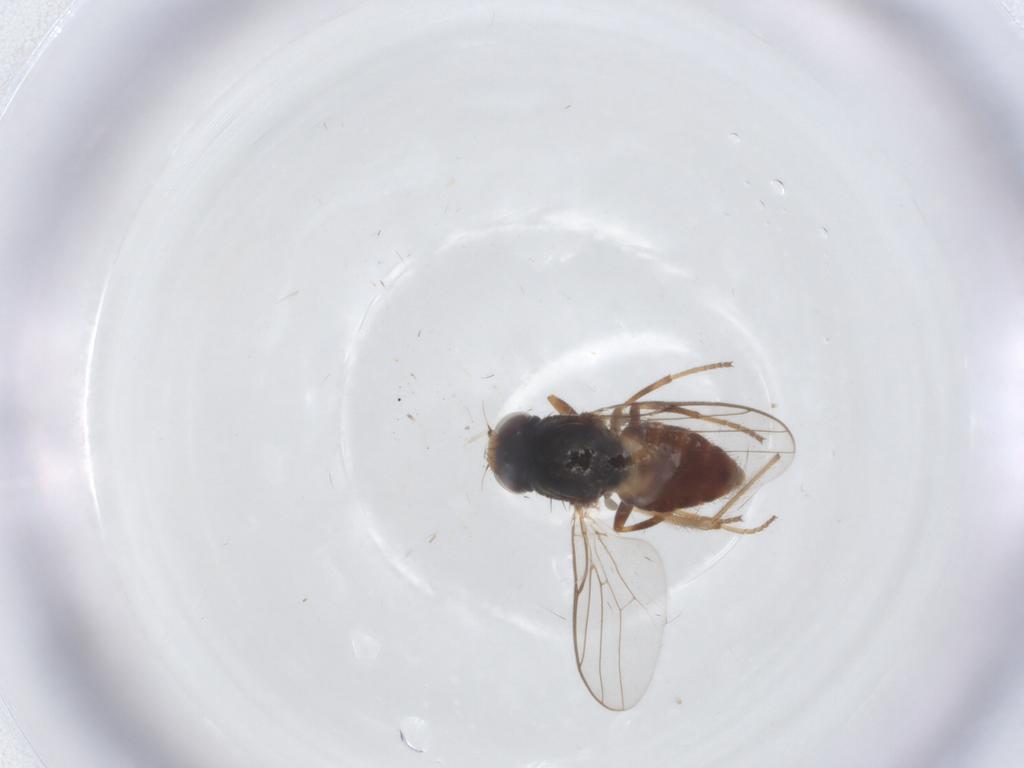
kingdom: Animalia
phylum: Arthropoda
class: Insecta
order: Diptera
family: Chloropidae
